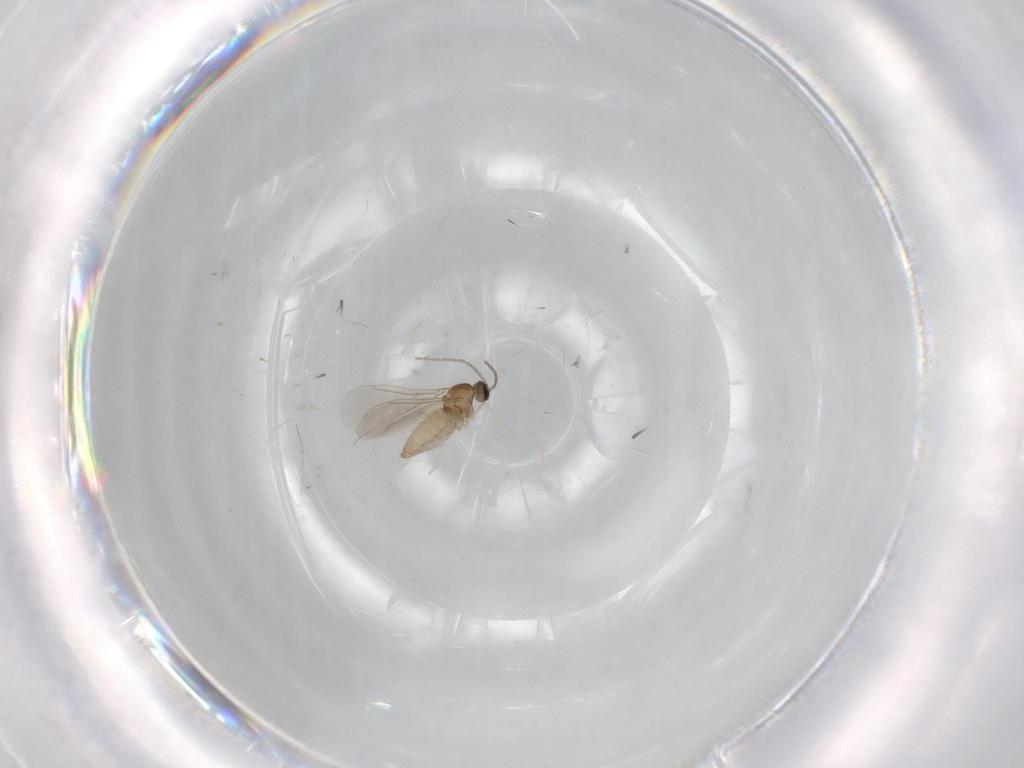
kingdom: Animalia
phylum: Arthropoda
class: Insecta
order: Diptera
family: Cecidomyiidae
